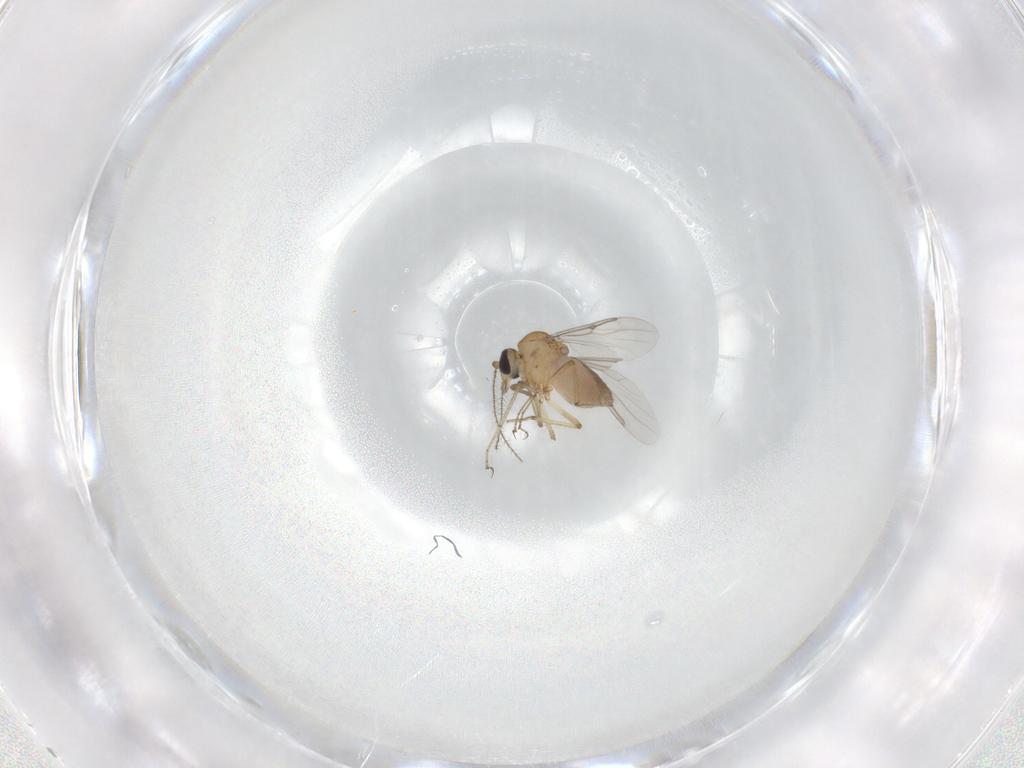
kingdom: Animalia
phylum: Arthropoda
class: Insecta
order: Diptera
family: Ceratopogonidae
